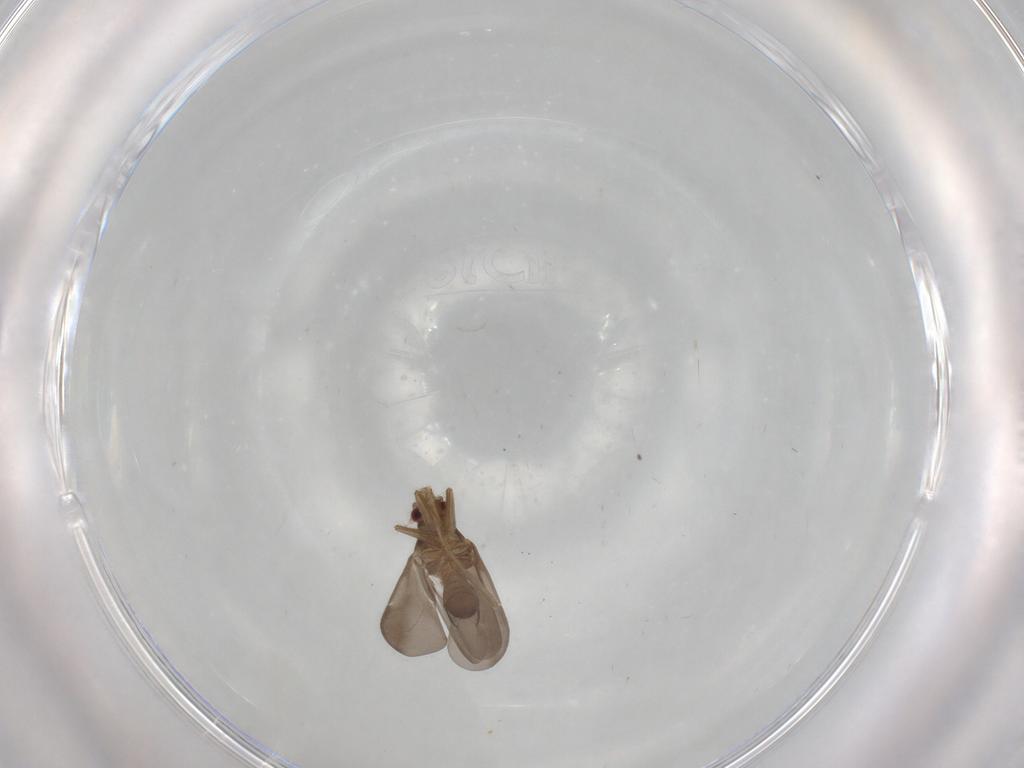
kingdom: Animalia
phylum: Arthropoda
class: Insecta
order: Hemiptera
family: Ceratocombidae
